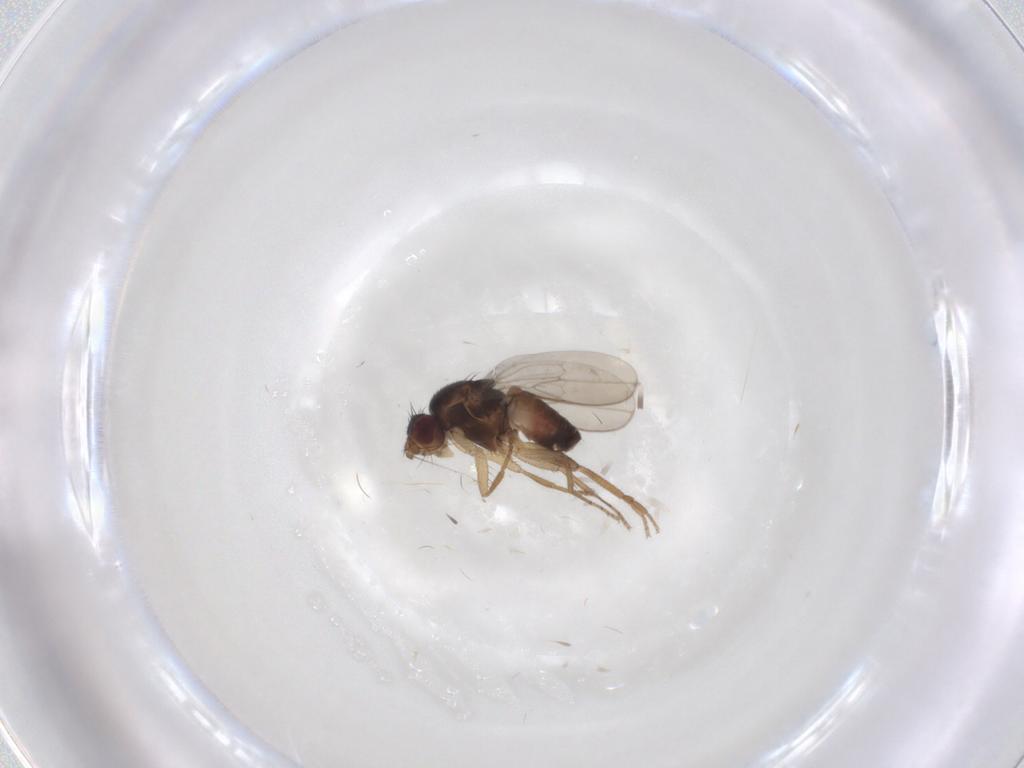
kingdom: Animalia
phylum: Arthropoda
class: Insecta
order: Diptera
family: Sphaeroceridae
